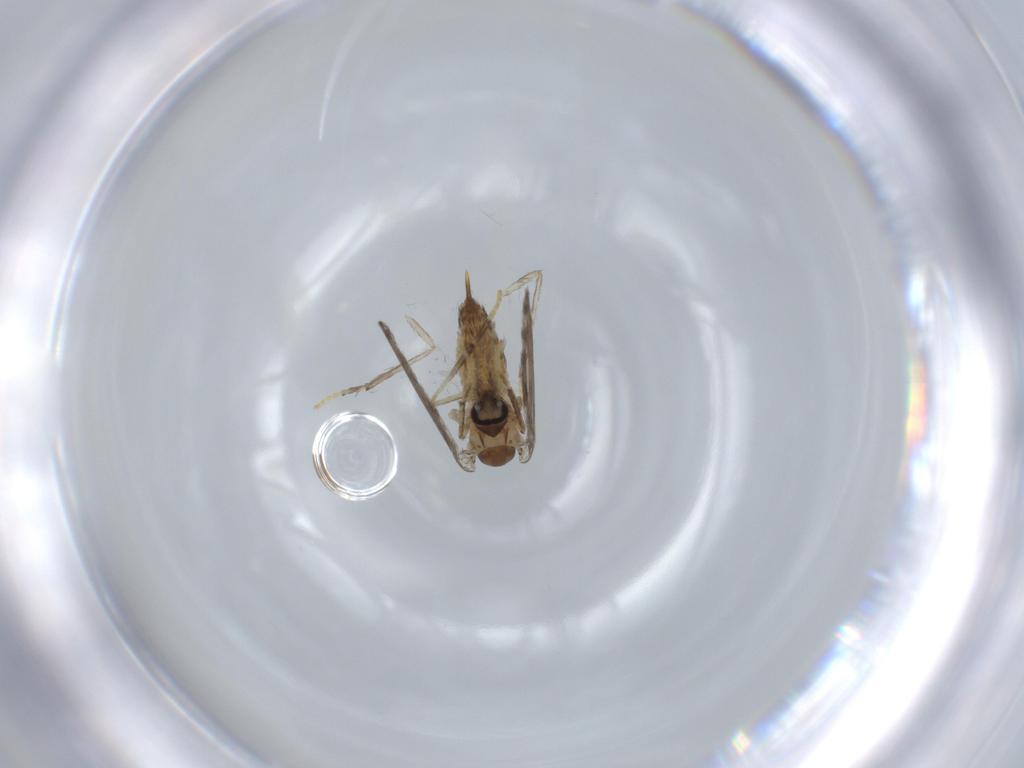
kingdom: Animalia
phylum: Arthropoda
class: Insecta
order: Diptera
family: Psychodidae
